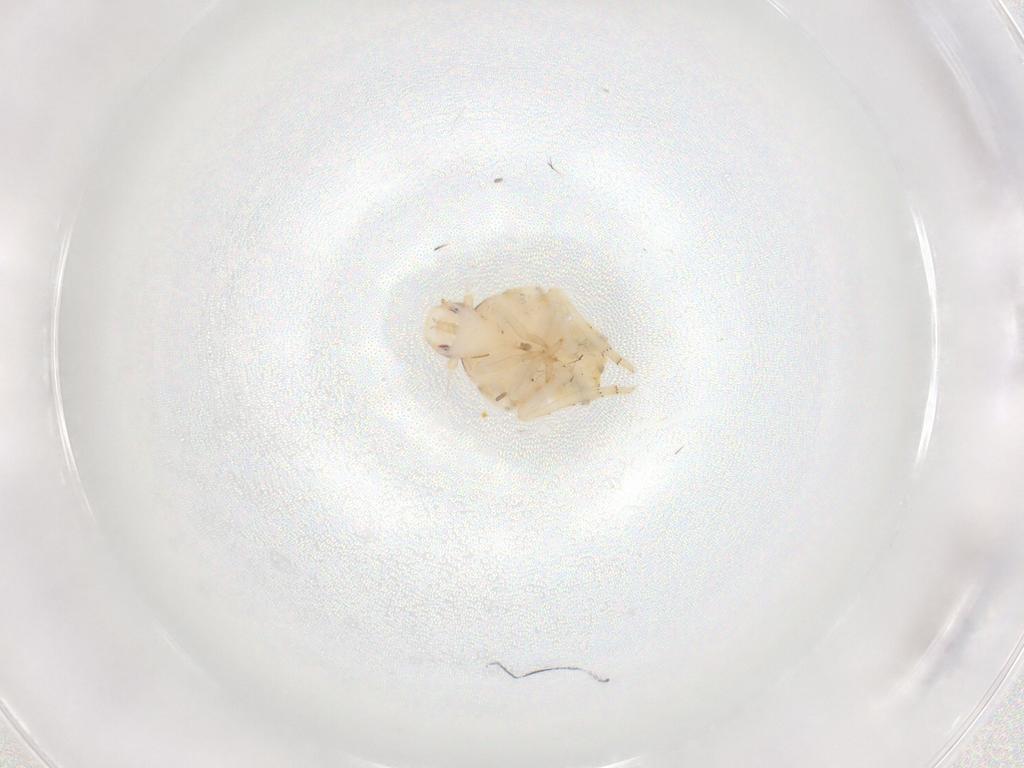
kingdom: Animalia
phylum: Arthropoda
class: Insecta
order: Hemiptera
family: Flatidae
